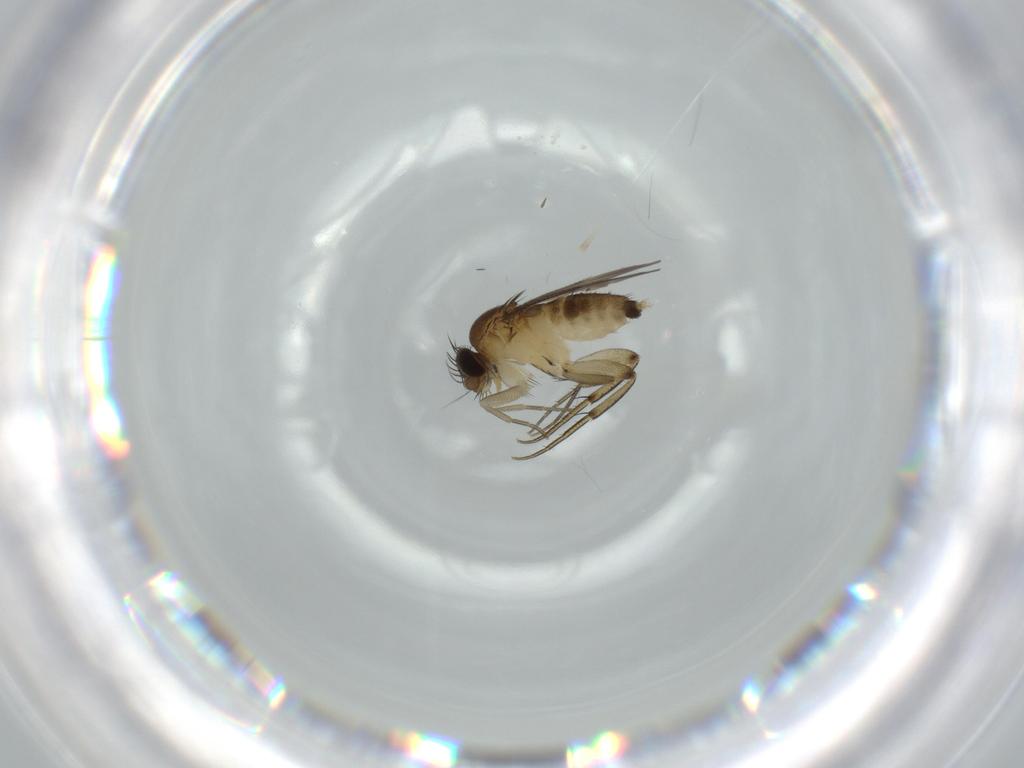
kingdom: Animalia
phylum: Arthropoda
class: Insecta
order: Diptera
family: Phoridae
